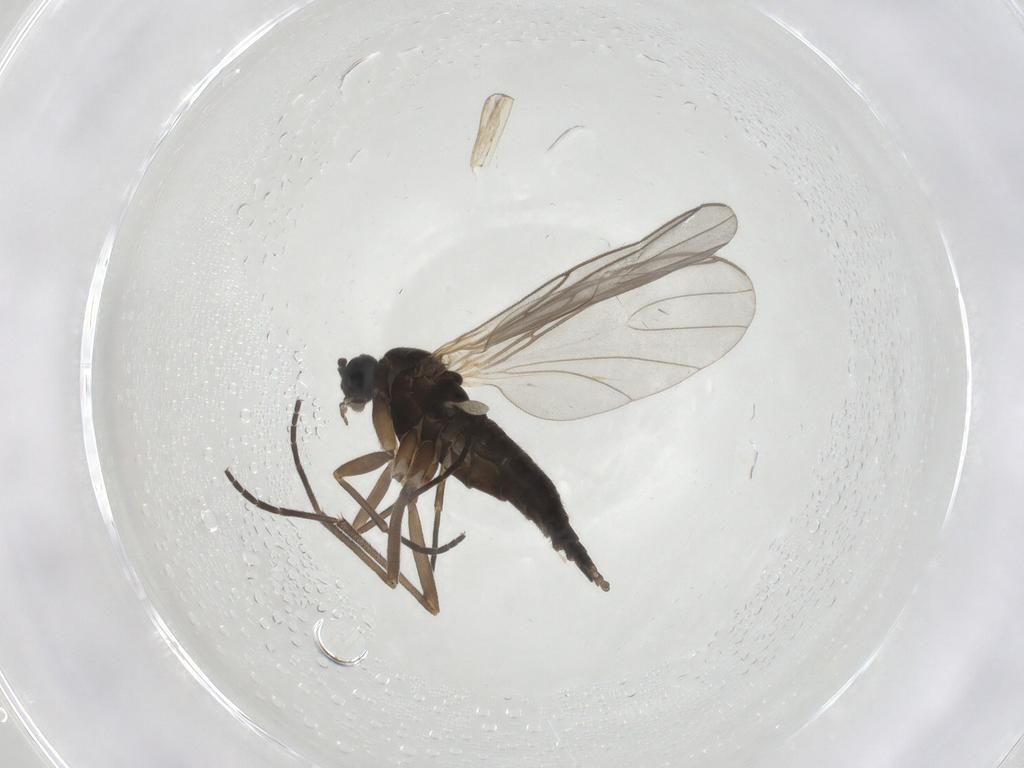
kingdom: Animalia
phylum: Arthropoda
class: Insecta
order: Diptera
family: Sciaridae
